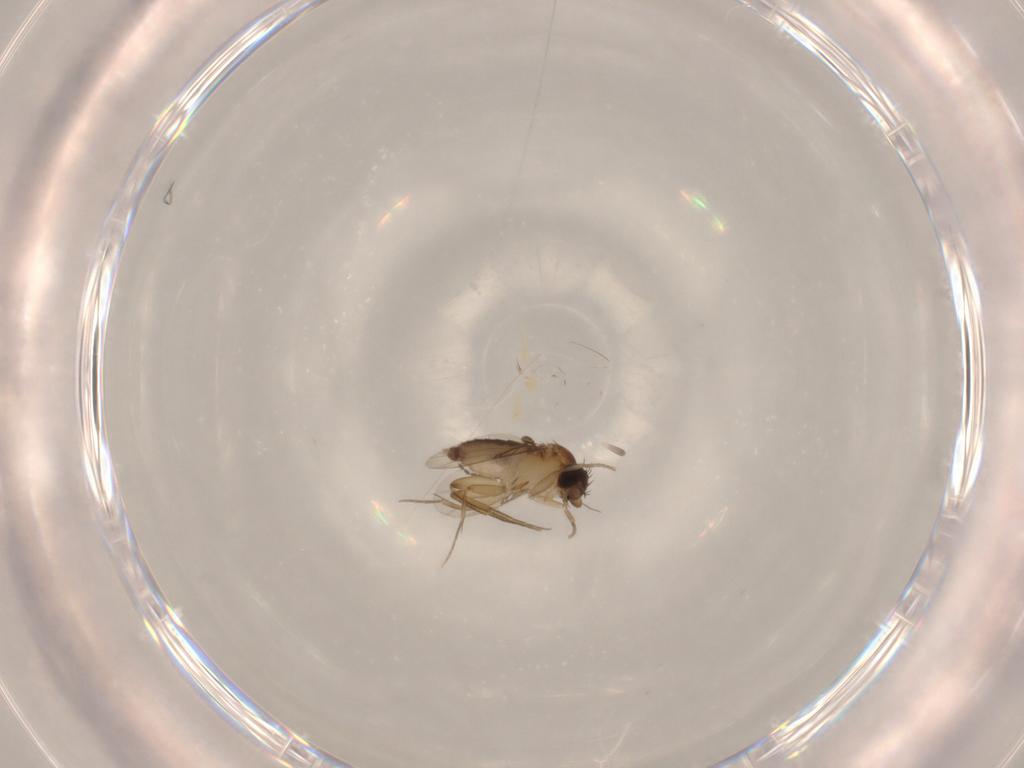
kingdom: Animalia
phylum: Arthropoda
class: Insecta
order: Diptera
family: Phoridae
